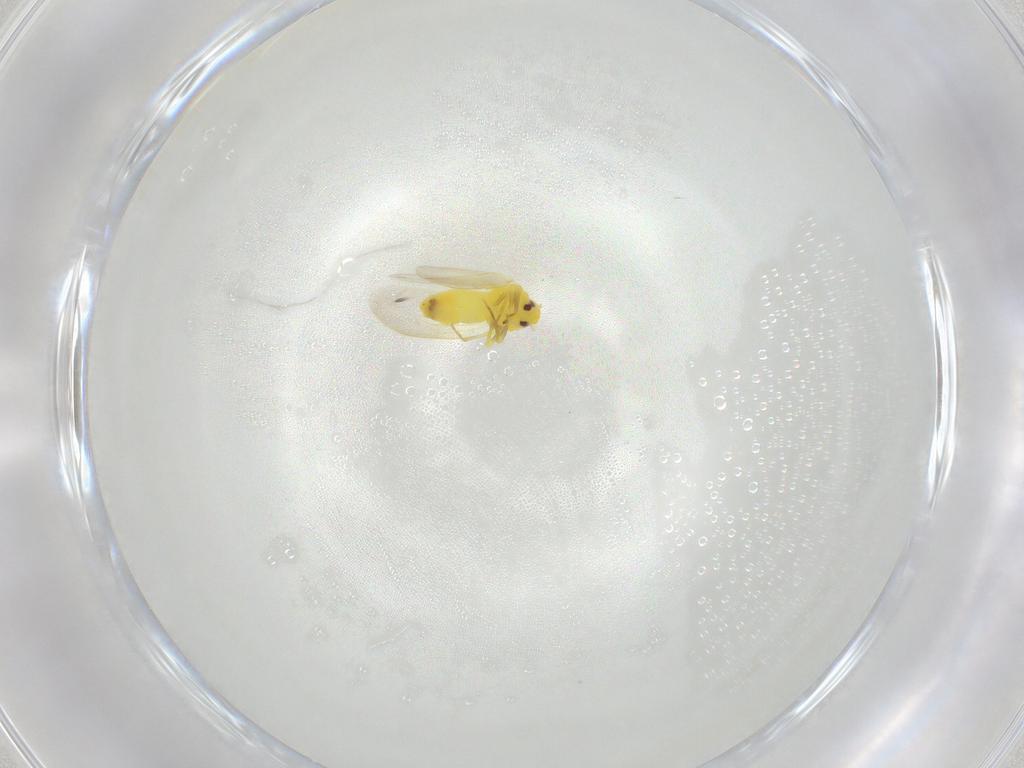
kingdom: Animalia
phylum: Arthropoda
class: Insecta
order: Hemiptera
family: Aleyrodidae
